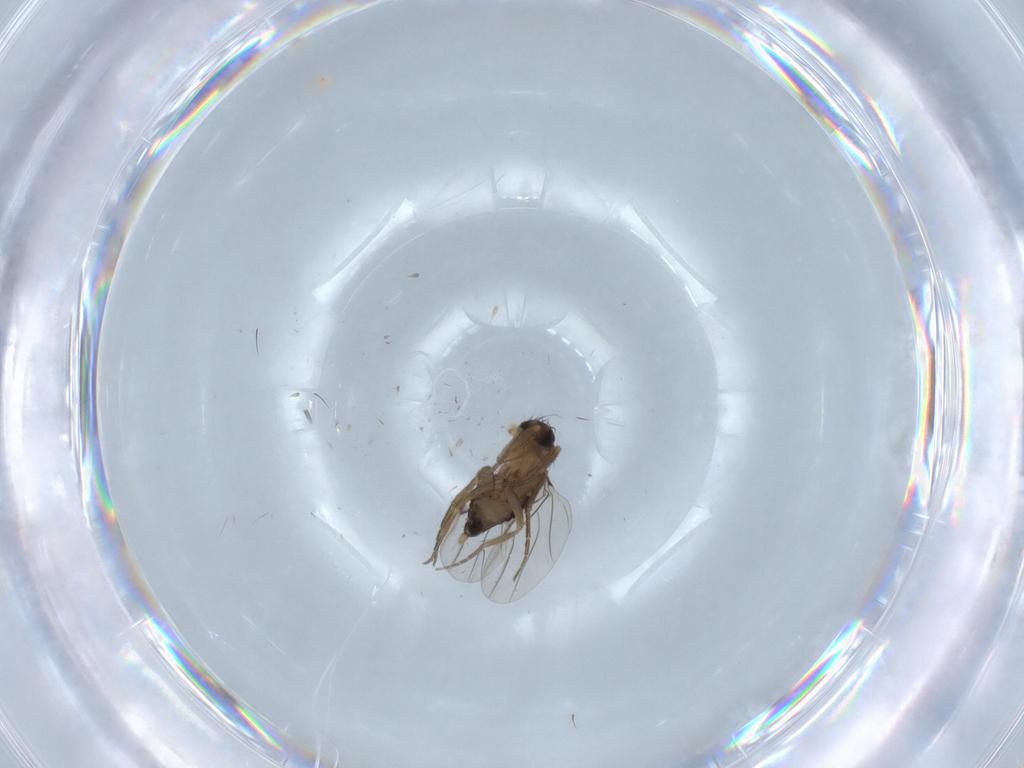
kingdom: Animalia
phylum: Arthropoda
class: Insecta
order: Diptera
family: Phoridae
